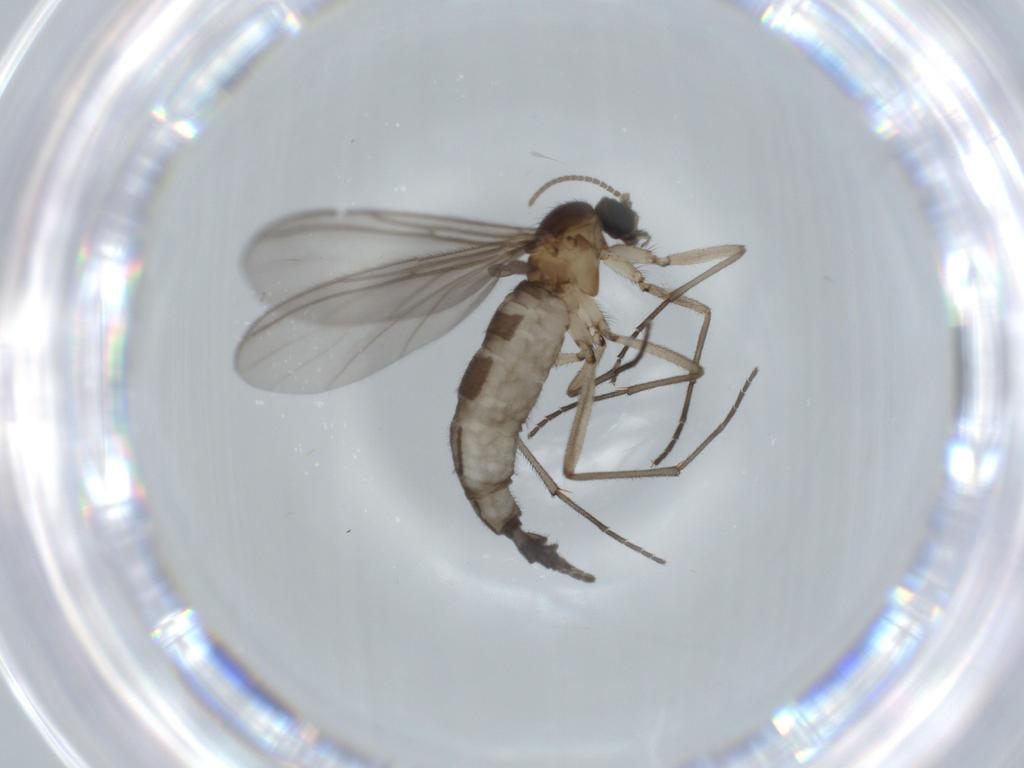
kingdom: Animalia
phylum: Arthropoda
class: Insecta
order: Diptera
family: Sciaridae
